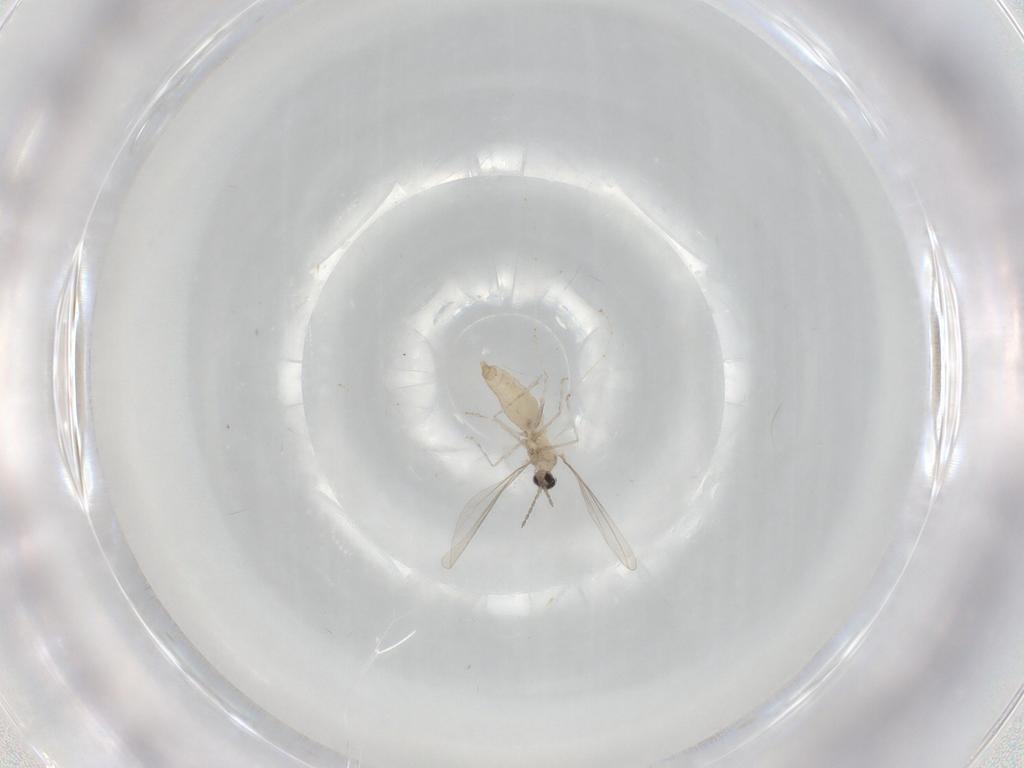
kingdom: Animalia
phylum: Arthropoda
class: Insecta
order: Diptera
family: Cecidomyiidae
